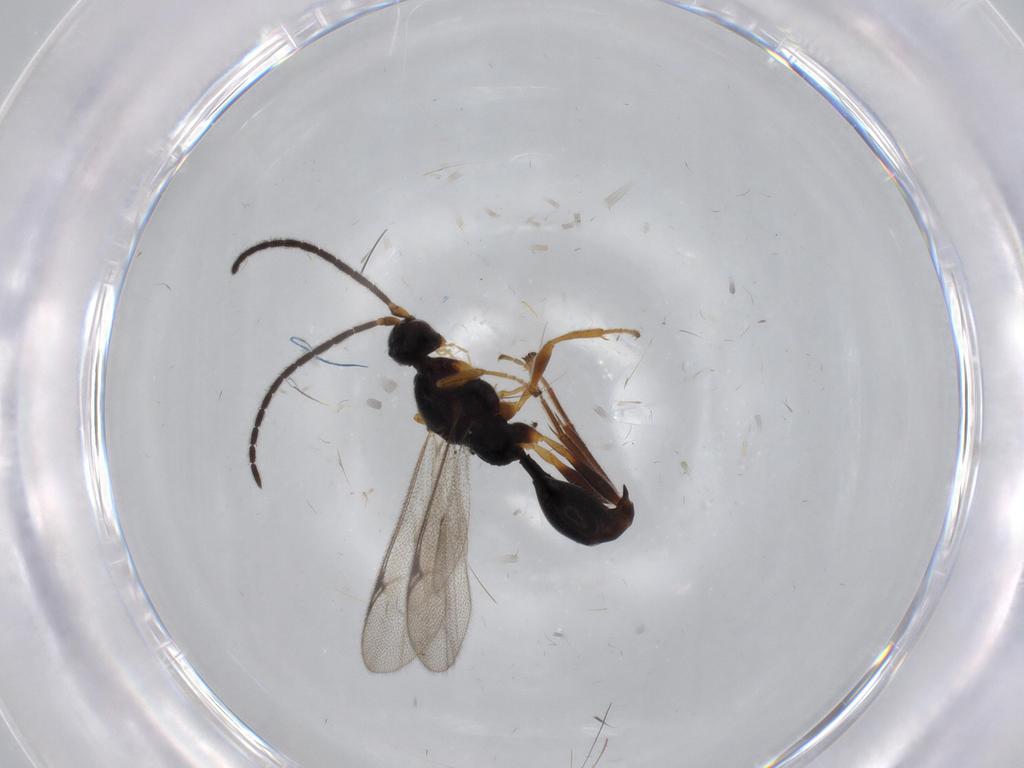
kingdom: Animalia
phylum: Arthropoda
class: Insecta
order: Hymenoptera
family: Proctotrupidae
